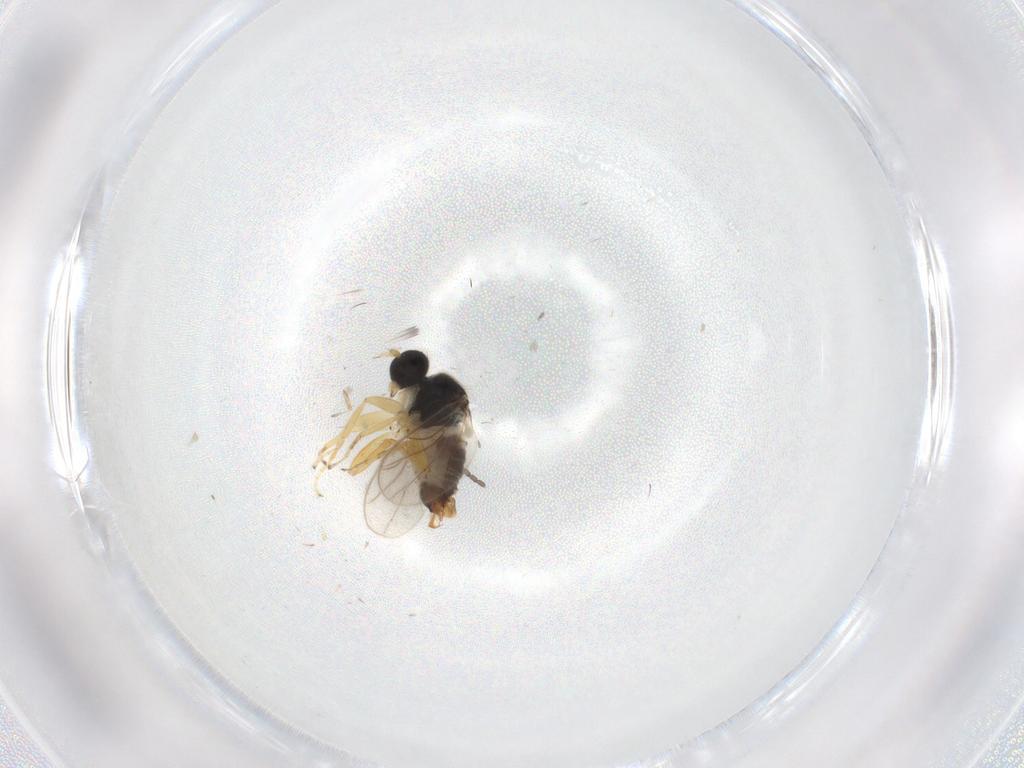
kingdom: Animalia
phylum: Arthropoda
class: Insecta
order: Diptera
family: Hybotidae
